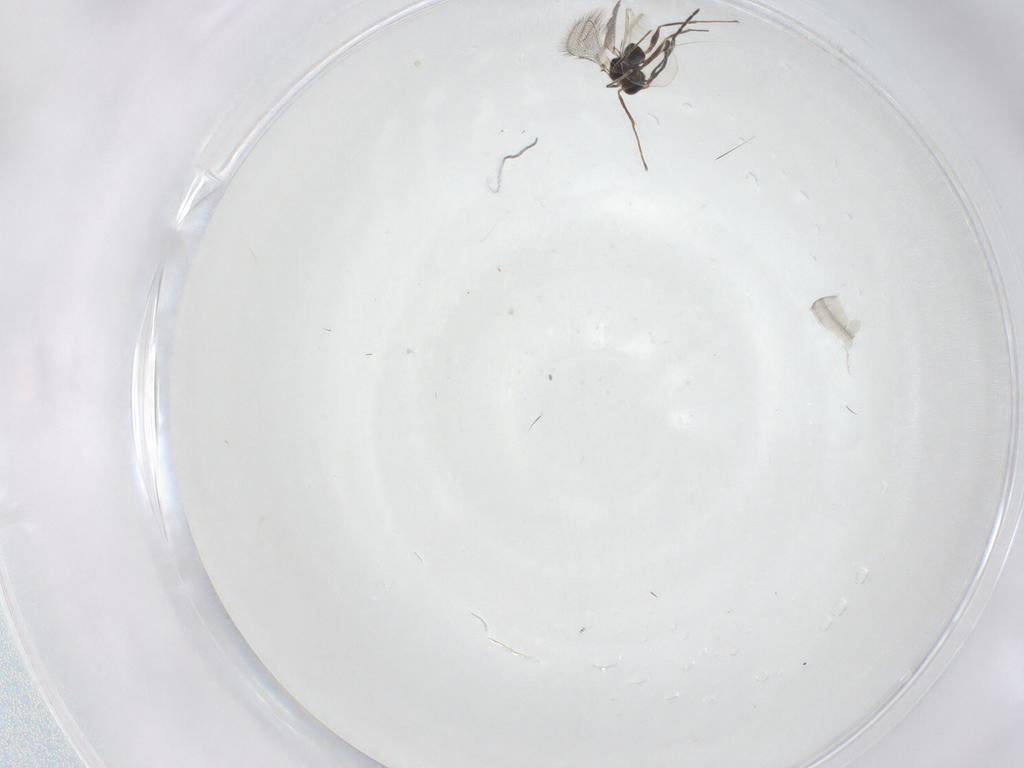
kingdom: Animalia
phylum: Arthropoda
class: Insecta
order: Hymenoptera
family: Mymaridae
